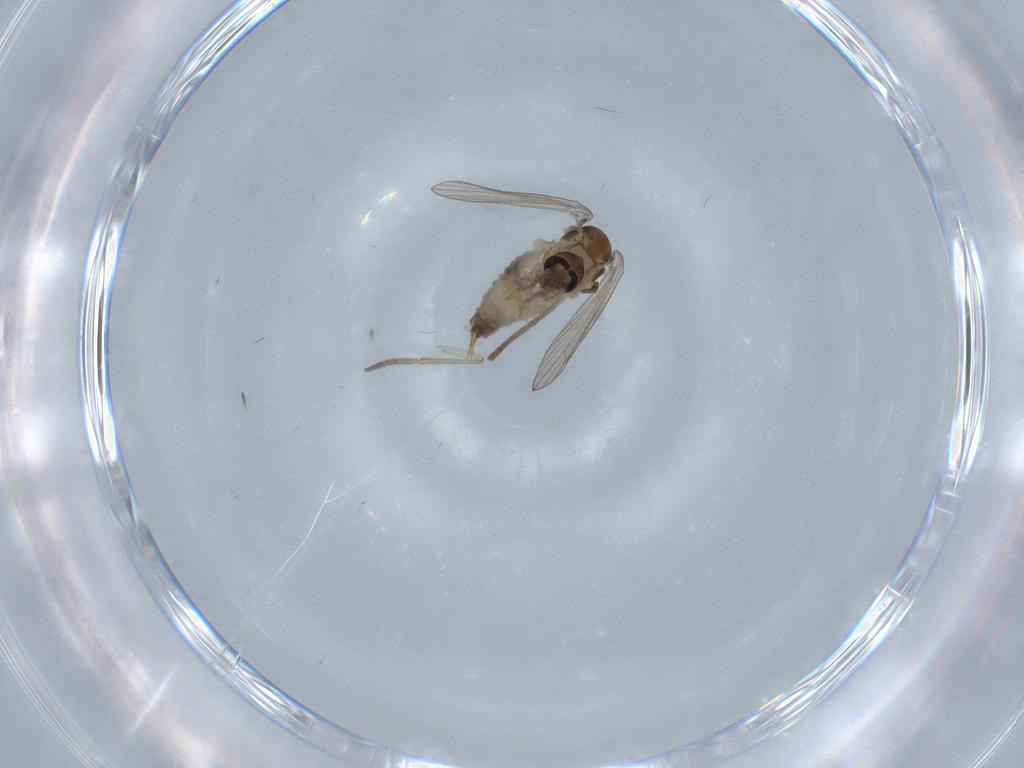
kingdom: Animalia
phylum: Arthropoda
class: Insecta
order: Diptera
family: Psychodidae
